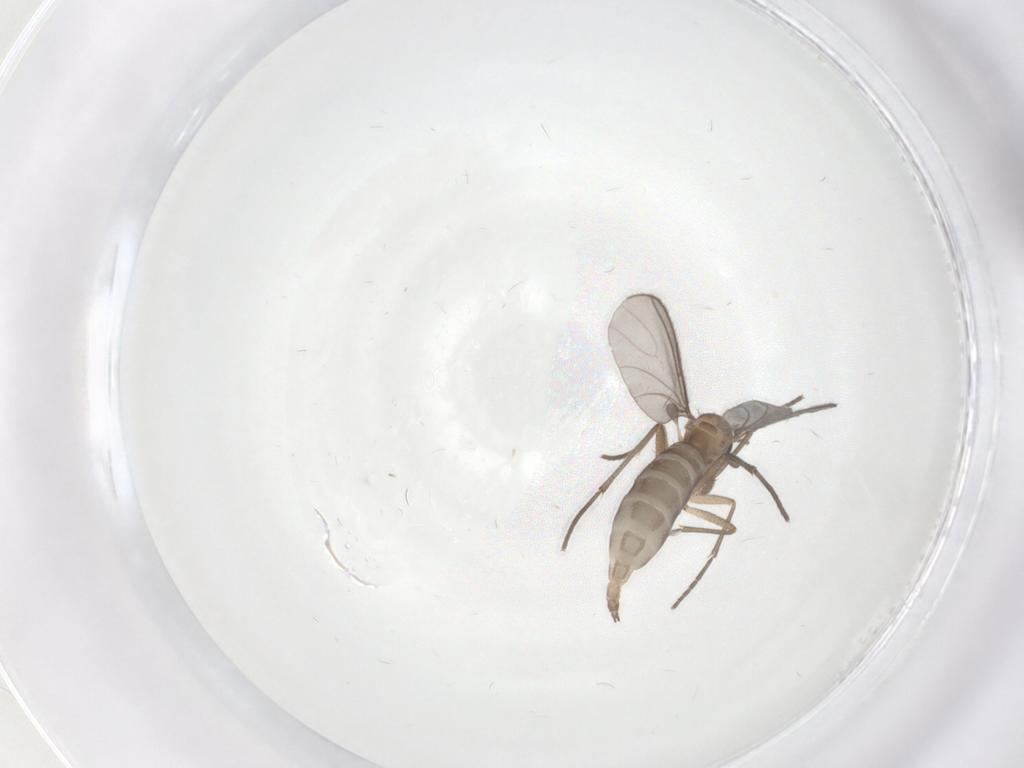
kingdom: Animalia
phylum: Arthropoda
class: Insecta
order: Diptera
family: Sciaridae
